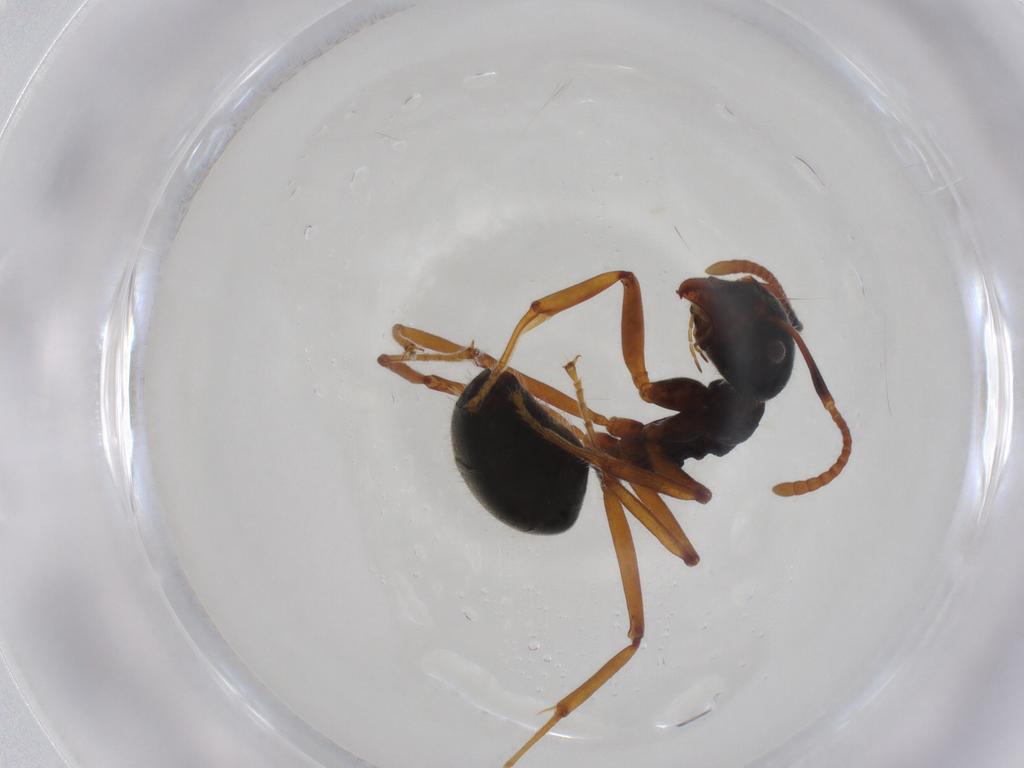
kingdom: Animalia
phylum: Arthropoda
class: Insecta
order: Hymenoptera
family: Formicidae
